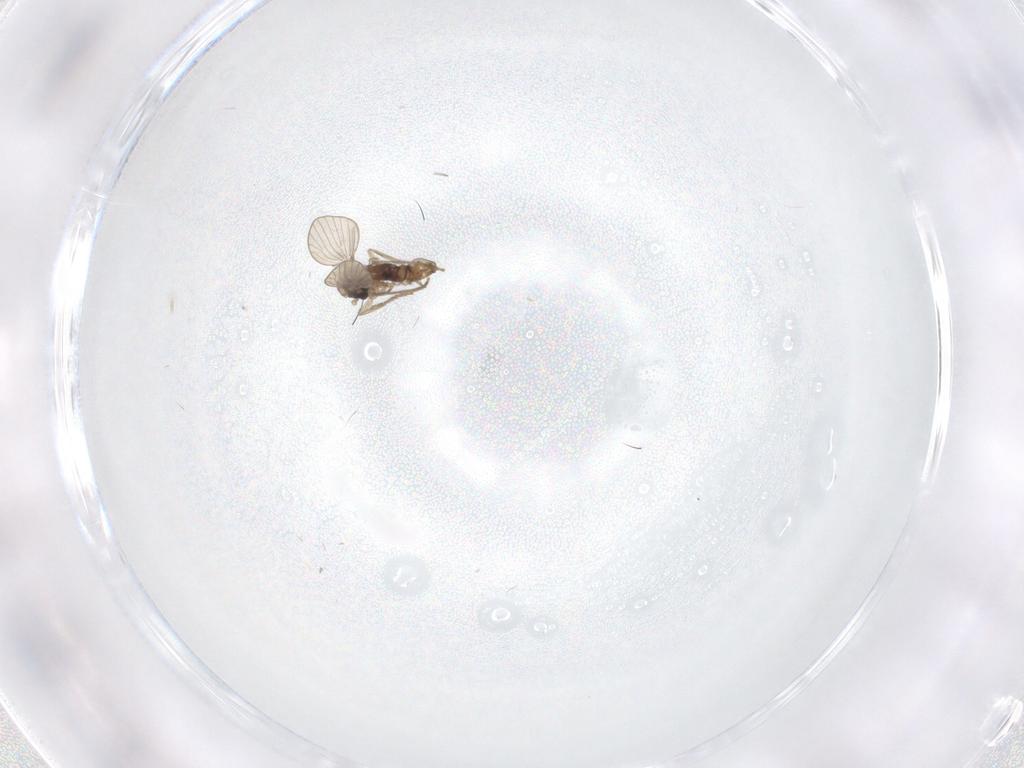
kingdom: Animalia
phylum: Arthropoda
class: Insecta
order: Diptera
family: Psychodidae
